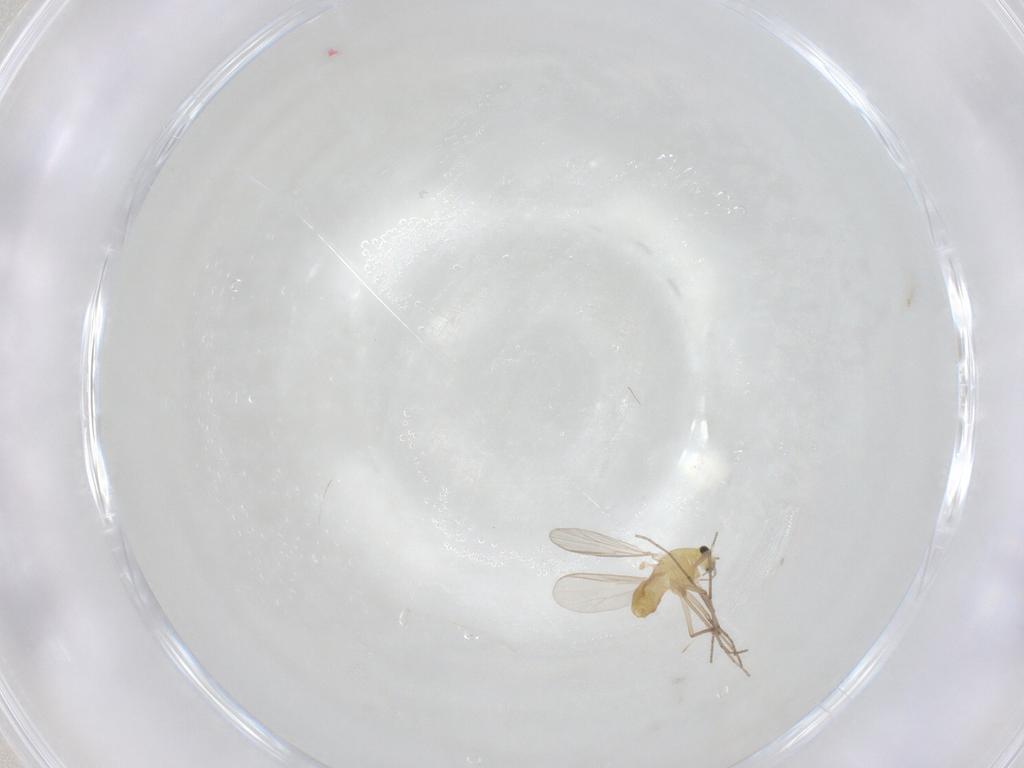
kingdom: Animalia
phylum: Arthropoda
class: Insecta
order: Diptera
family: Chironomidae
